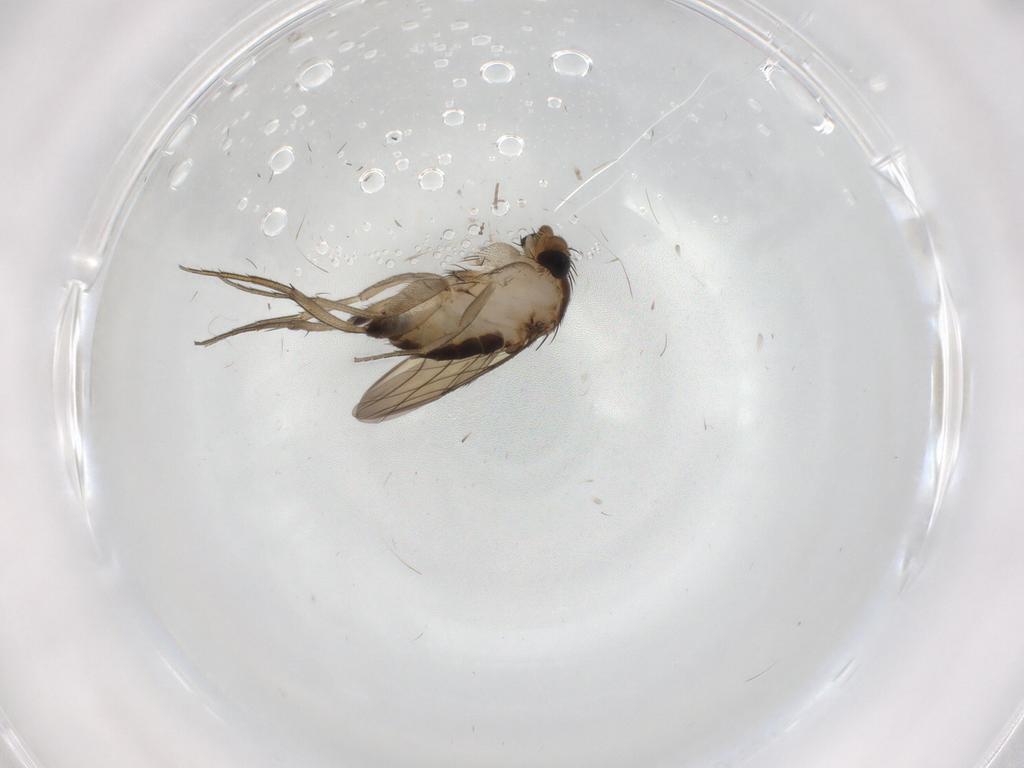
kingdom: Animalia
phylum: Arthropoda
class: Insecta
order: Diptera
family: Phoridae
